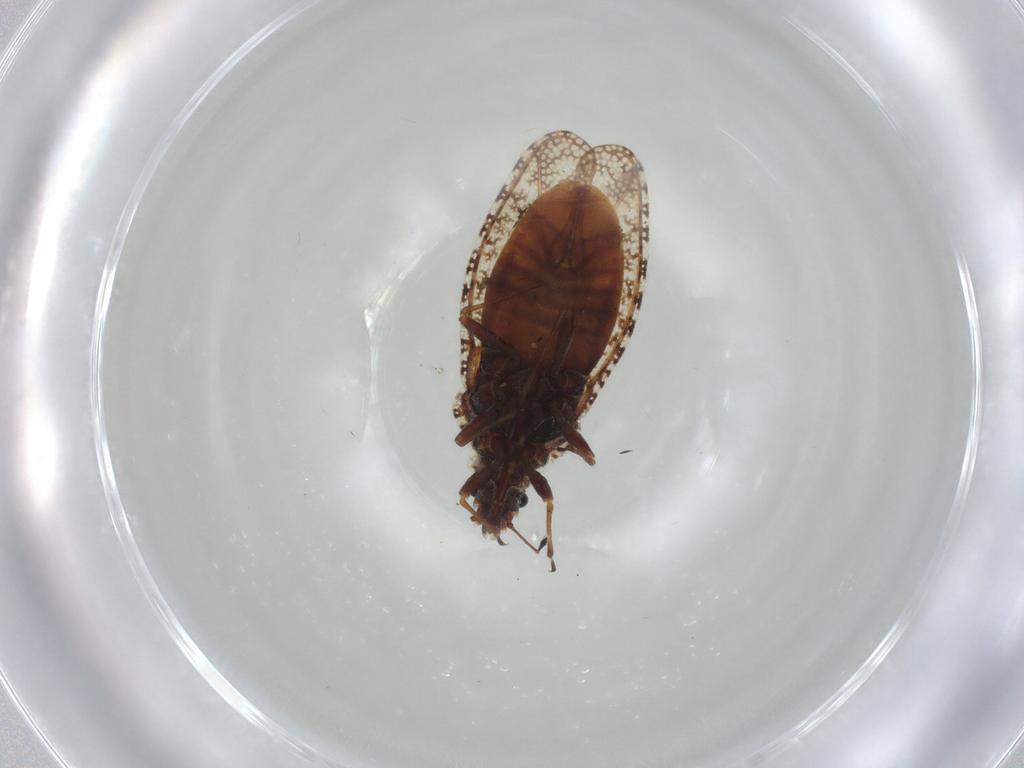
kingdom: Animalia
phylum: Arthropoda
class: Insecta
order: Hemiptera
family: Tingidae
